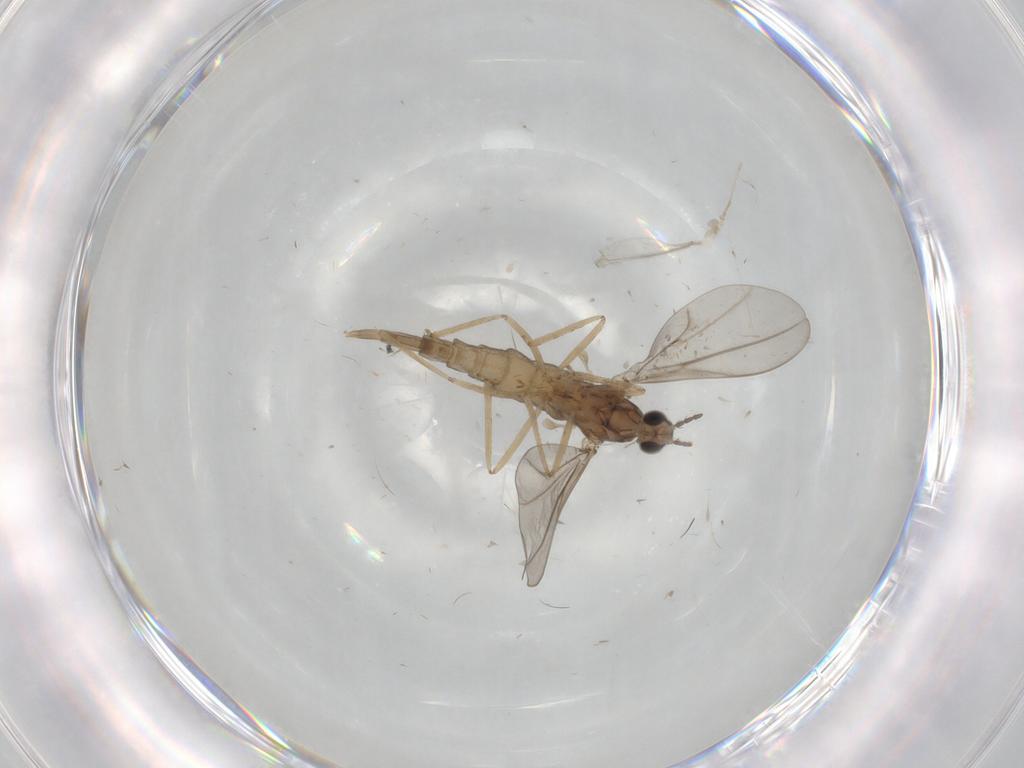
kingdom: Animalia
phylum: Arthropoda
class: Insecta
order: Diptera
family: Cecidomyiidae
